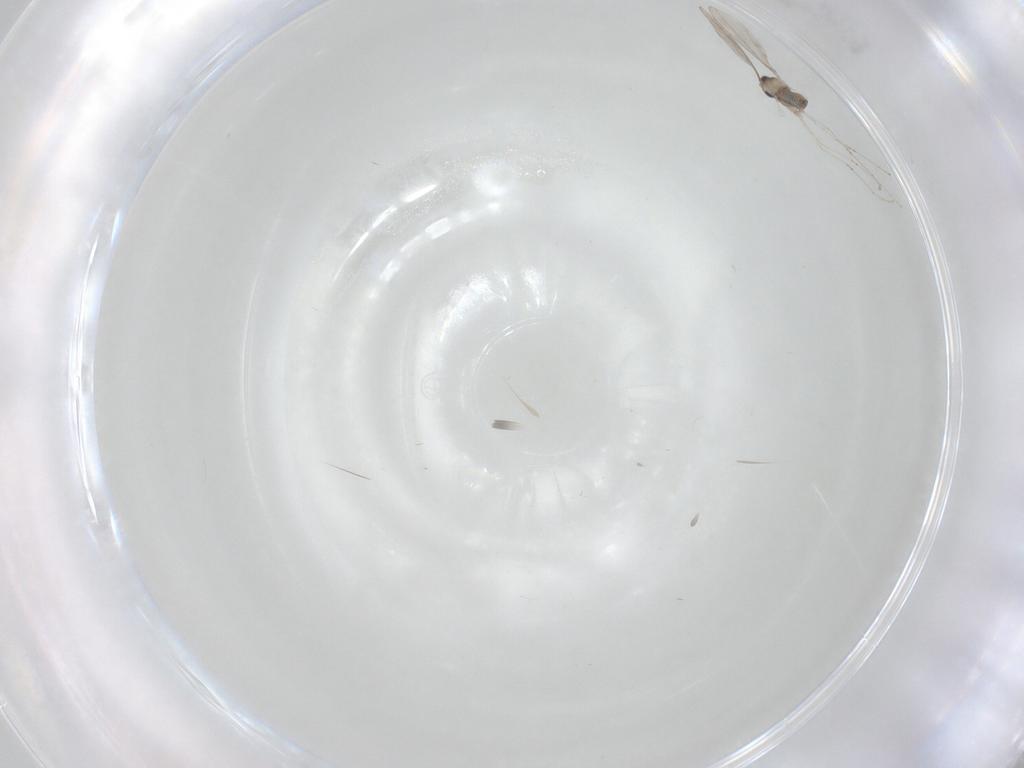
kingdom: Animalia
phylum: Arthropoda
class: Insecta
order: Diptera
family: Cecidomyiidae
